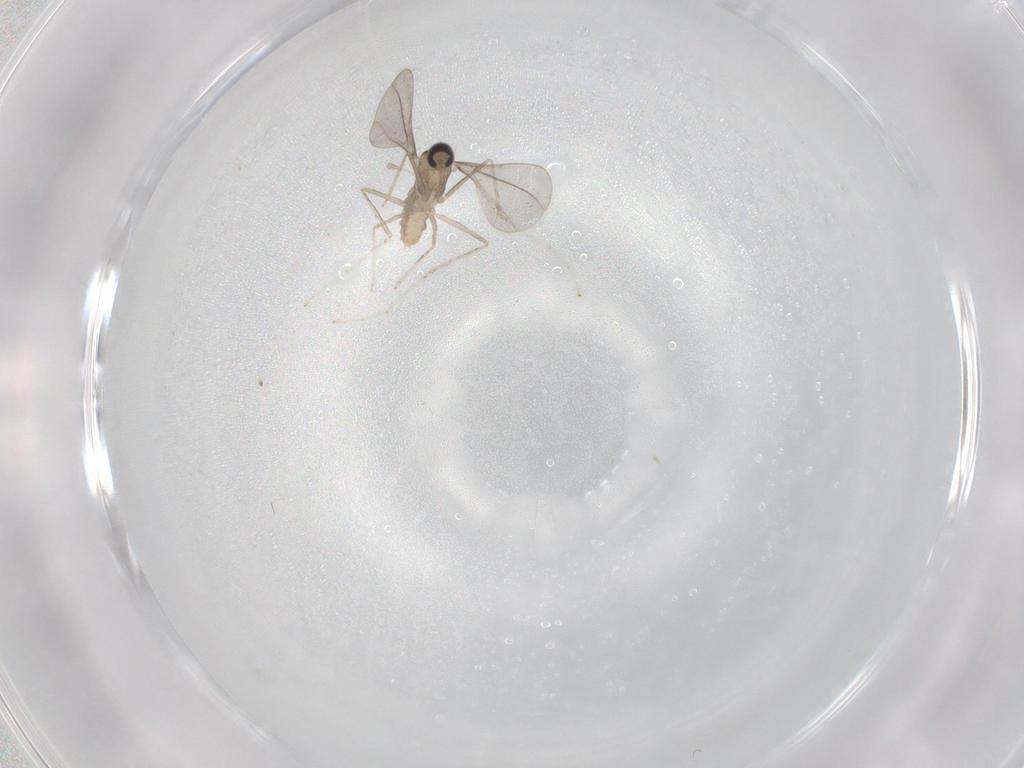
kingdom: Animalia
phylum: Arthropoda
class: Insecta
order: Diptera
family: Cecidomyiidae
